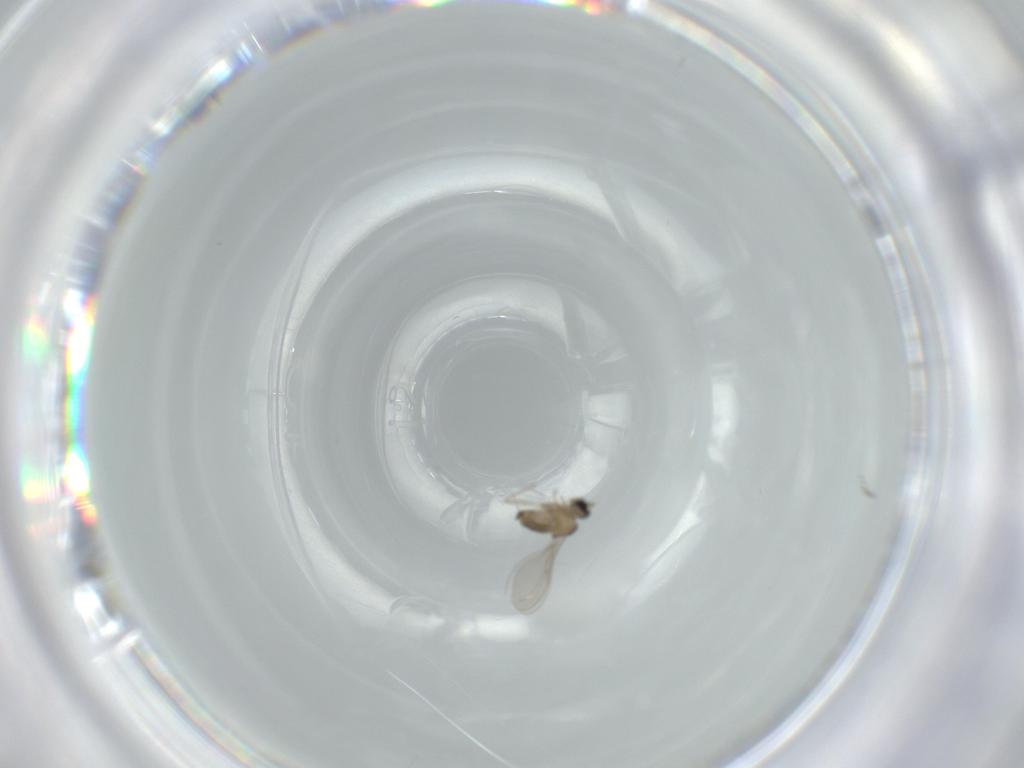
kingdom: Animalia
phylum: Arthropoda
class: Insecta
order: Diptera
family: Cecidomyiidae
